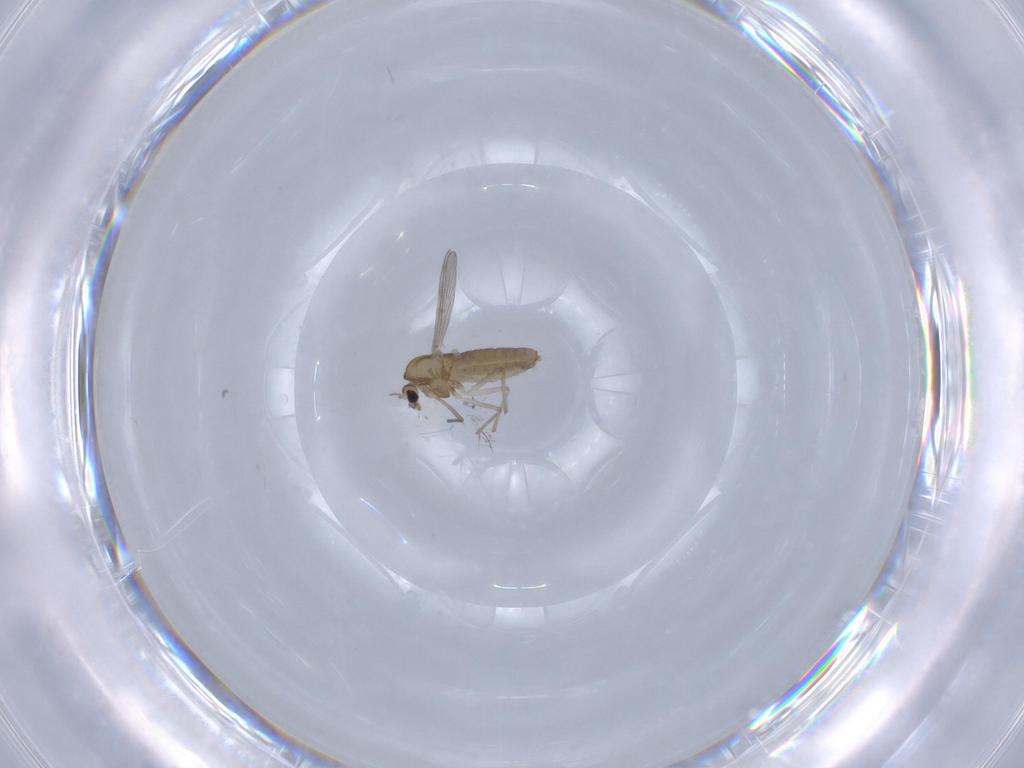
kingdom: Animalia
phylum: Arthropoda
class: Insecta
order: Diptera
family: Chironomidae
